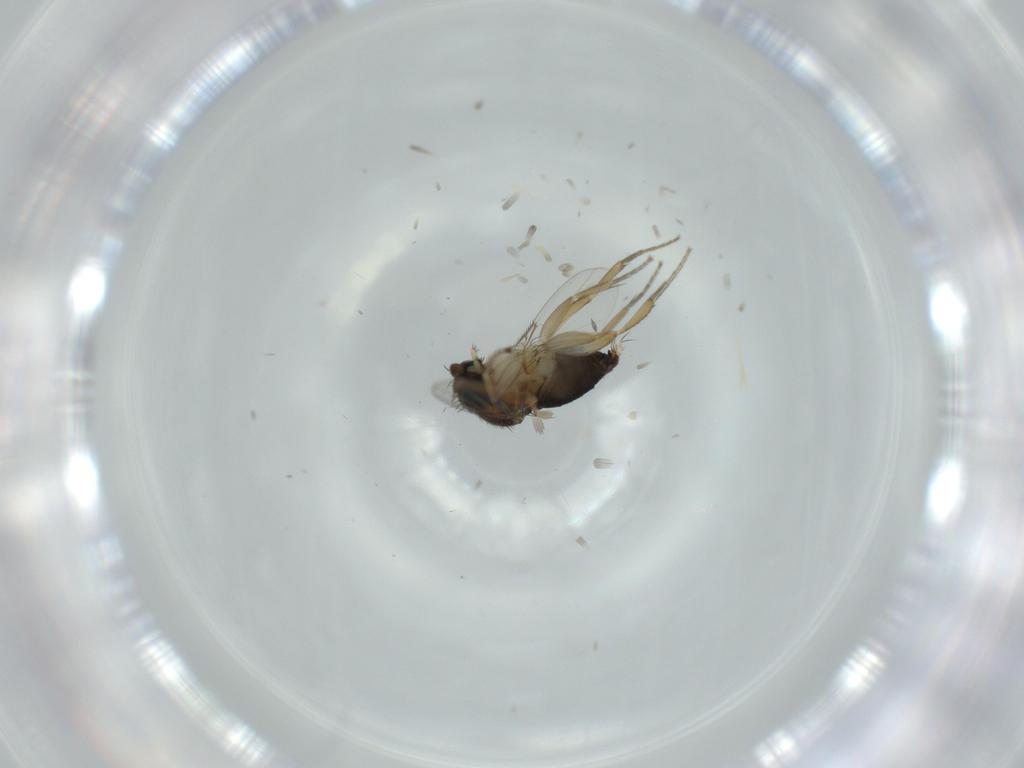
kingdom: Animalia
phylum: Arthropoda
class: Insecta
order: Diptera
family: Phoridae
